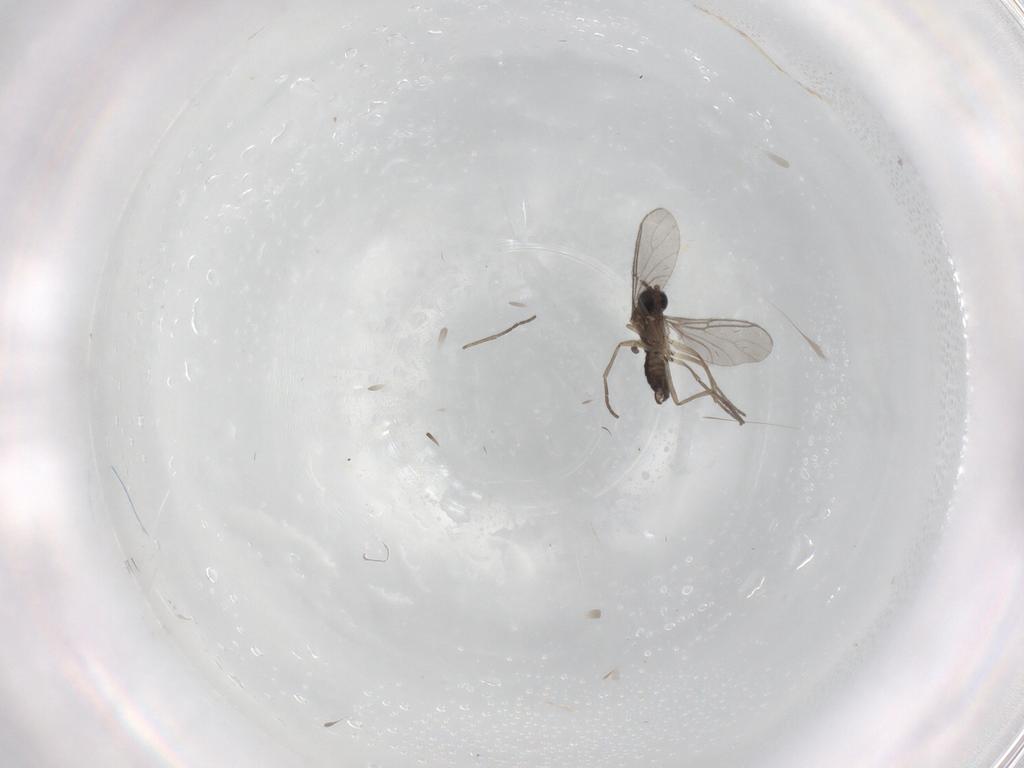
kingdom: Animalia
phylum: Arthropoda
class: Insecta
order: Diptera
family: Sciaridae
